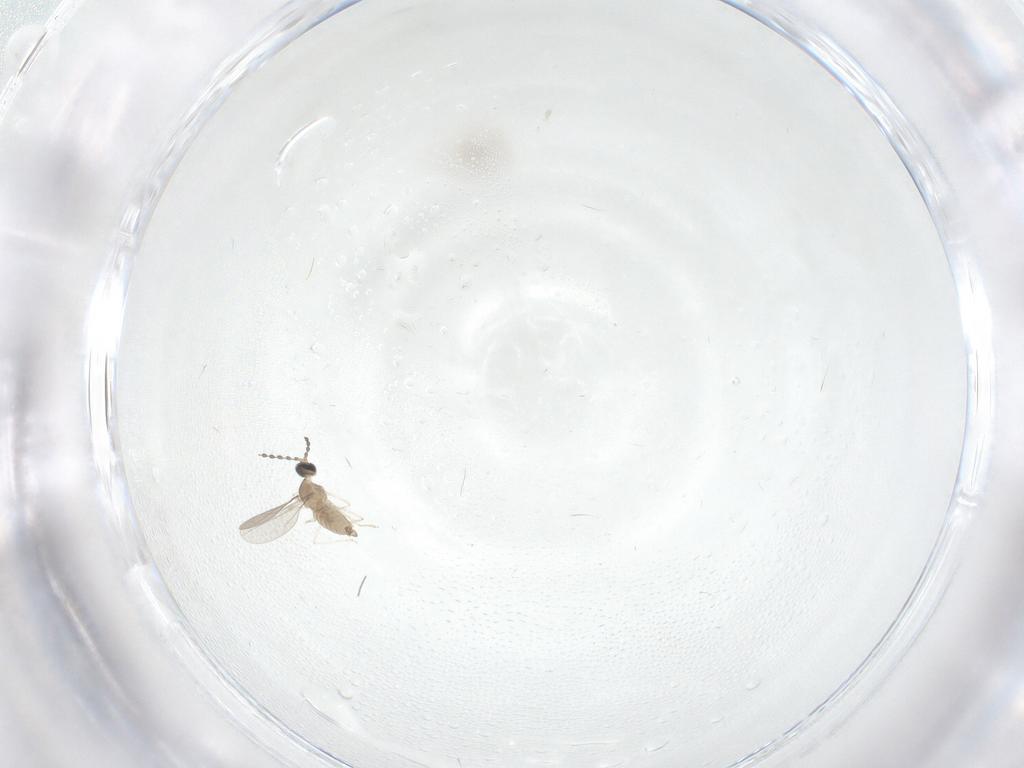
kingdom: Animalia
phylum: Arthropoda
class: Insecta
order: Diptera
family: Cecidomyiidae
